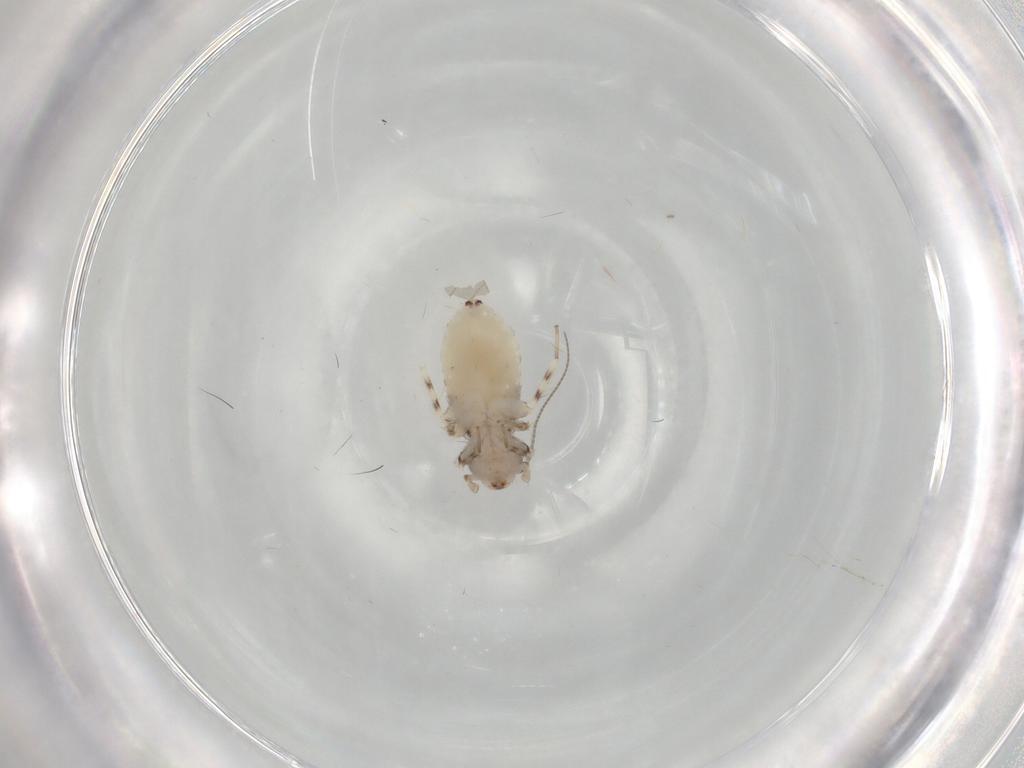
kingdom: Animalia
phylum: Arthropoda
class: Insecta
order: Psocodea
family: Lepidopsocidae
